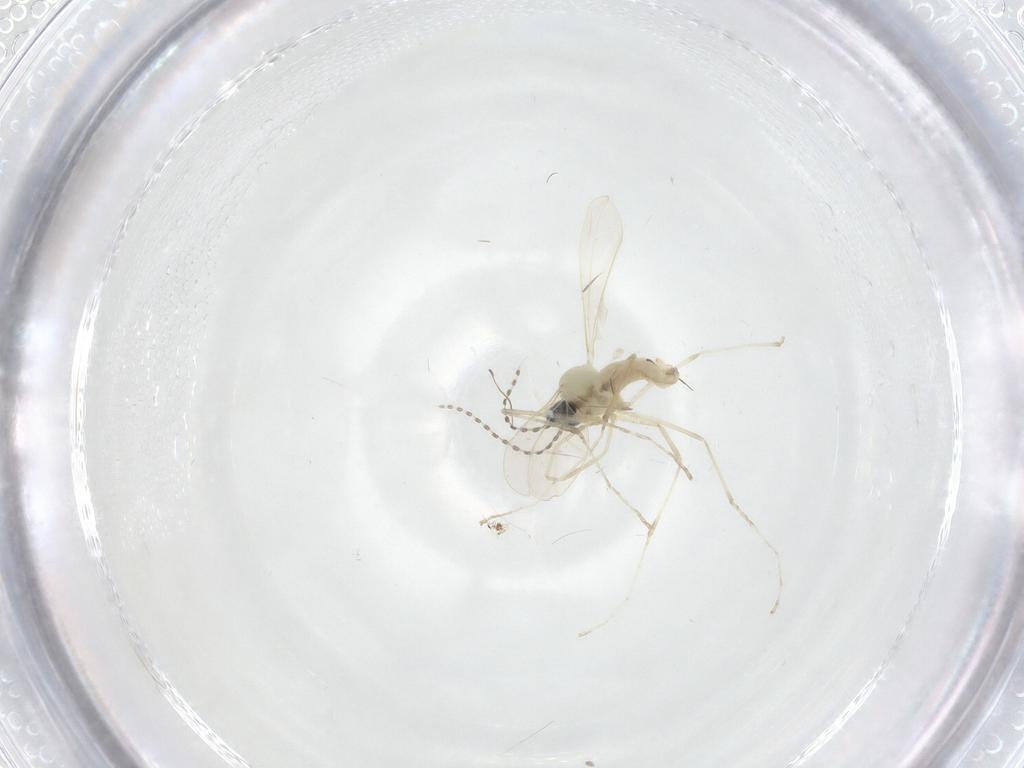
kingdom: Animalia
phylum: Arthropoda
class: Insecta
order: Diptera
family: Cecidomyiidae
